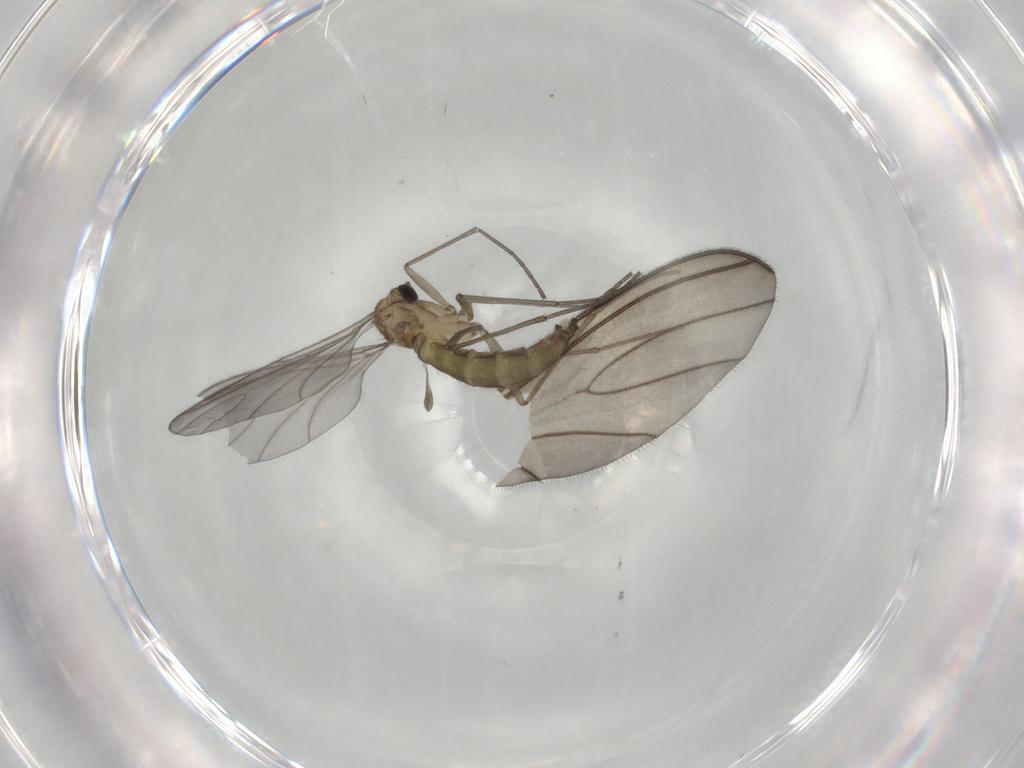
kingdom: Animalia
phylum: Arthropoda
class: Insecta
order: Diptera
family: Sciaridae
